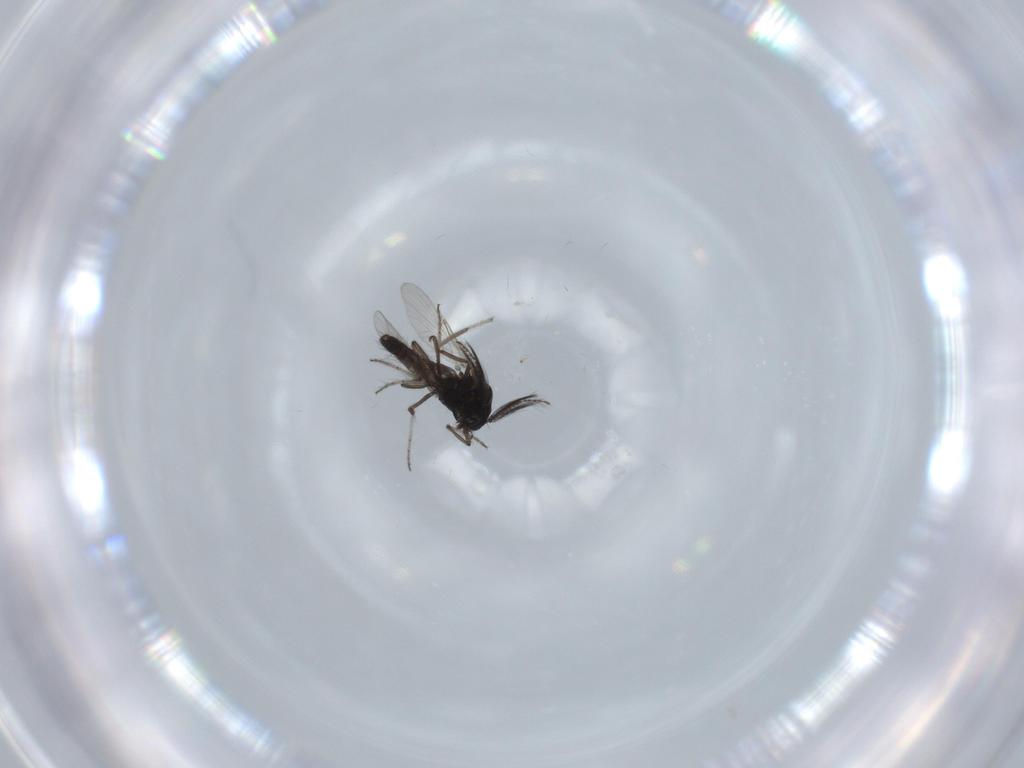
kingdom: Animalia
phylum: Arthropoda
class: Insecta
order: Diptera
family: Ceratopogonidae
